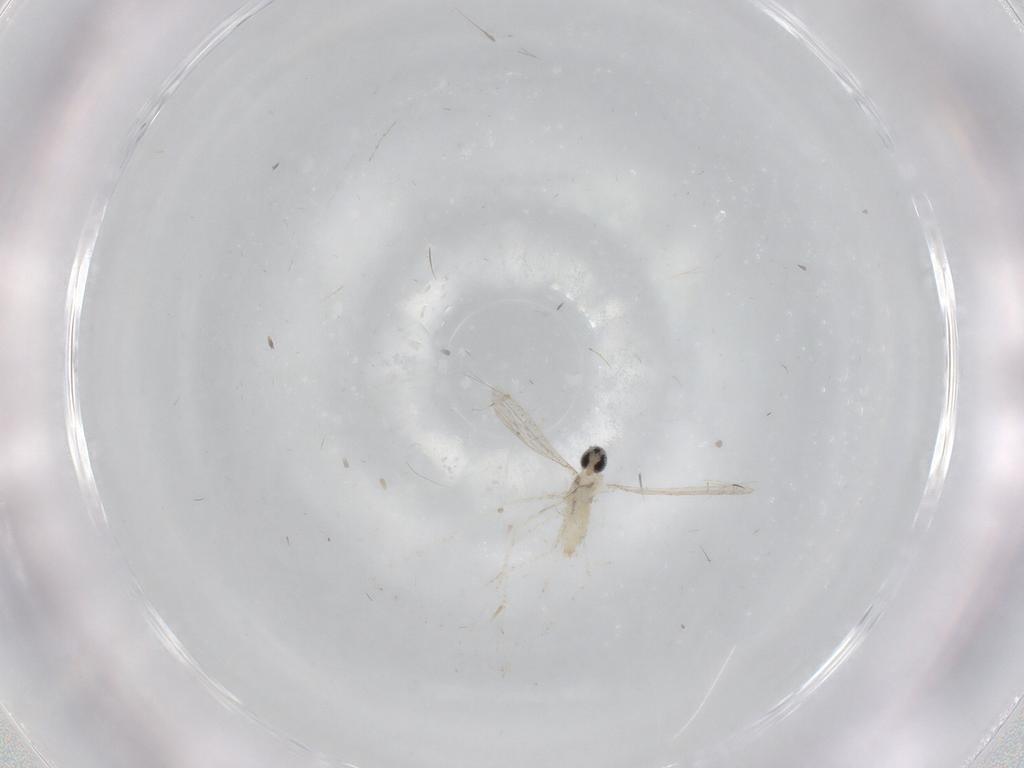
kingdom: Animalia
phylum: Arthropoda
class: Insecta
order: Diptera
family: Cecidomyiidae
